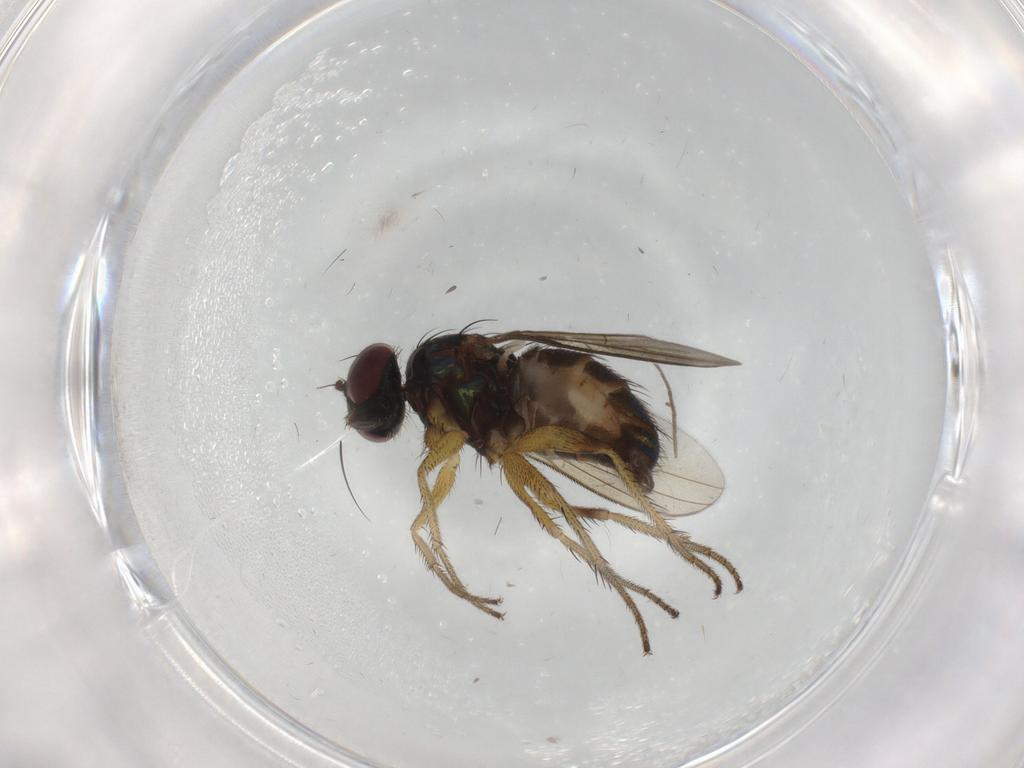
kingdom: Animalia
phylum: Arthropoda
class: Insecta
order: Diptera
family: Dolichopodidae
